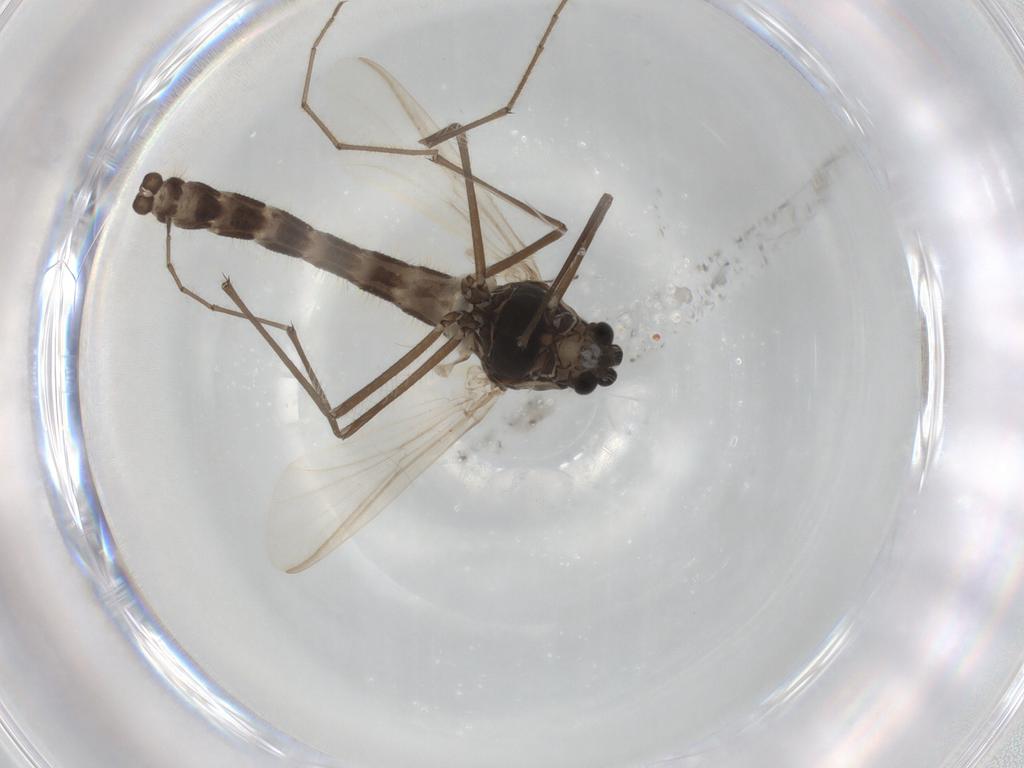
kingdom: Animalia
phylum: Arthropoda
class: Insecta
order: Diptera
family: Chironomidae
